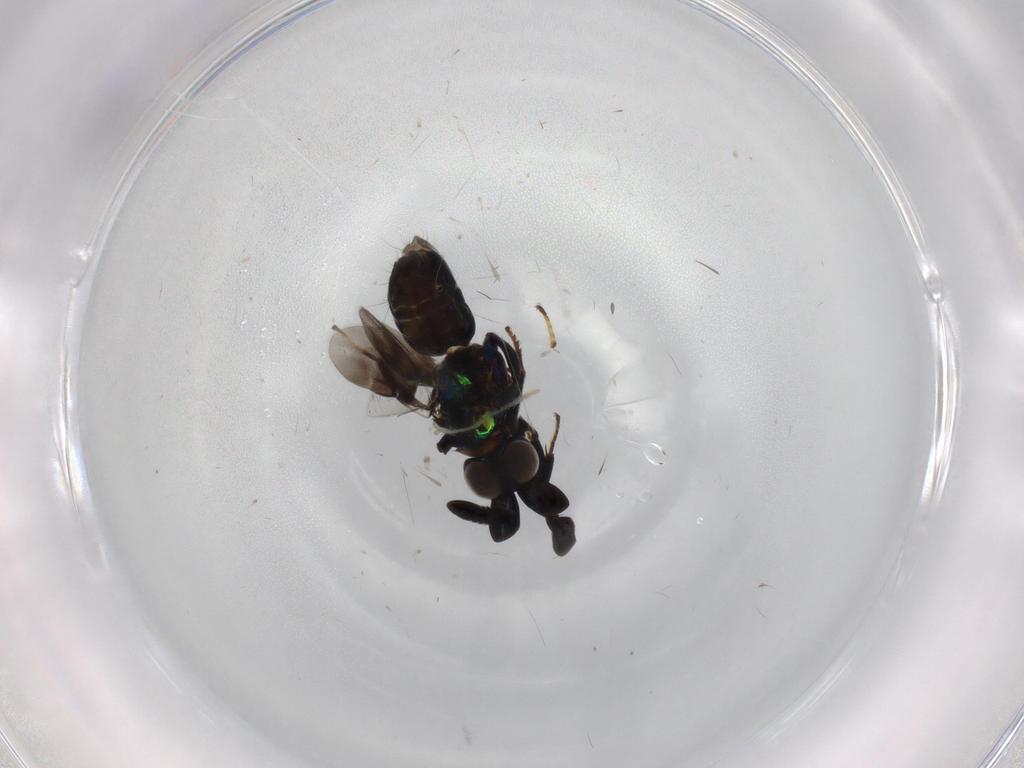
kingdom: Animalia
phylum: Arthropoda
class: Insecta
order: Hymenoptera
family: Encyrtidae
